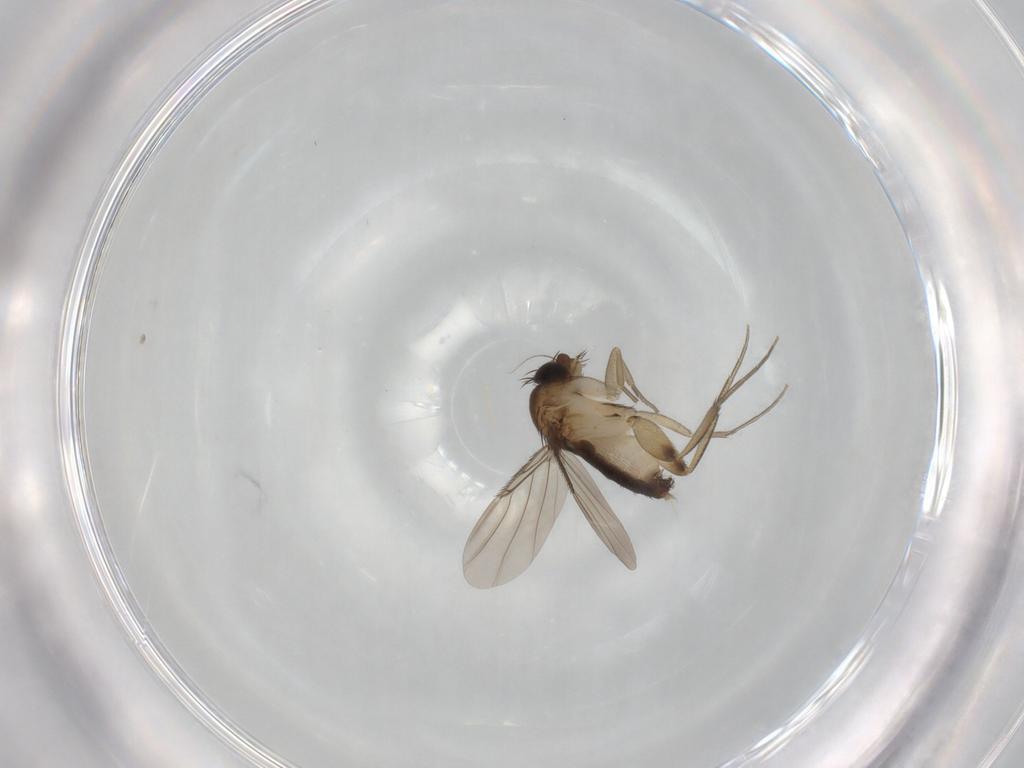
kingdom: Animalia
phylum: Arthropoda
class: Insecta
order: Diptera
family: Phoridae
